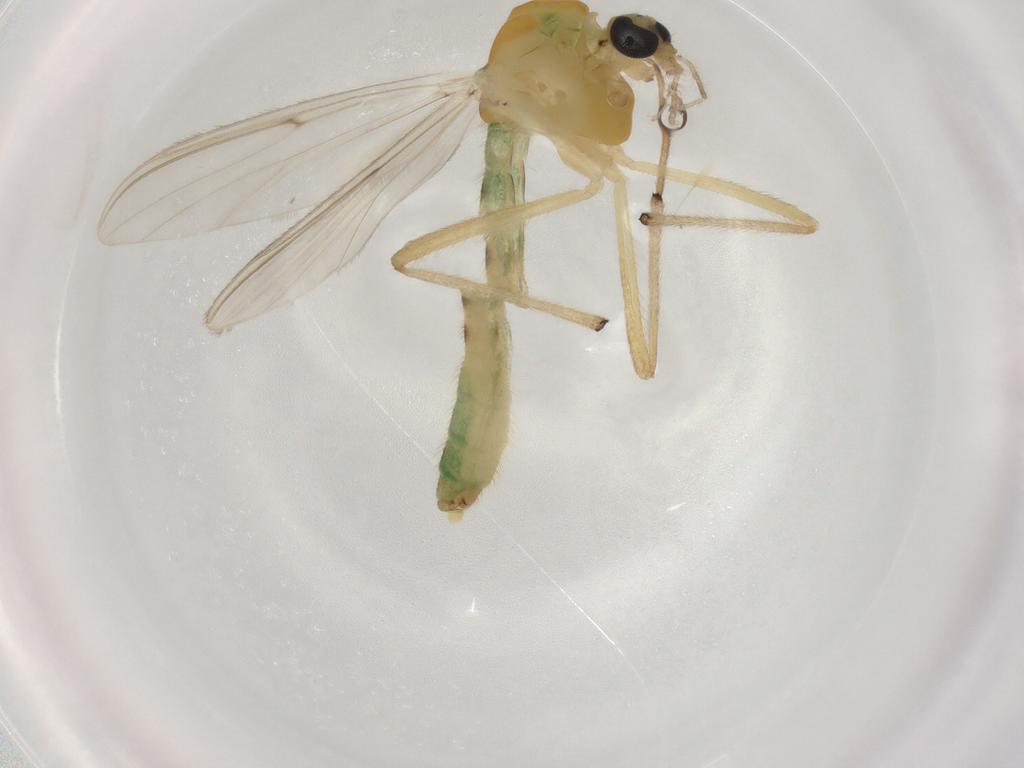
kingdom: Animalia
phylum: Arthropoda
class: Insecta
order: Diptera
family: Chironomidae
